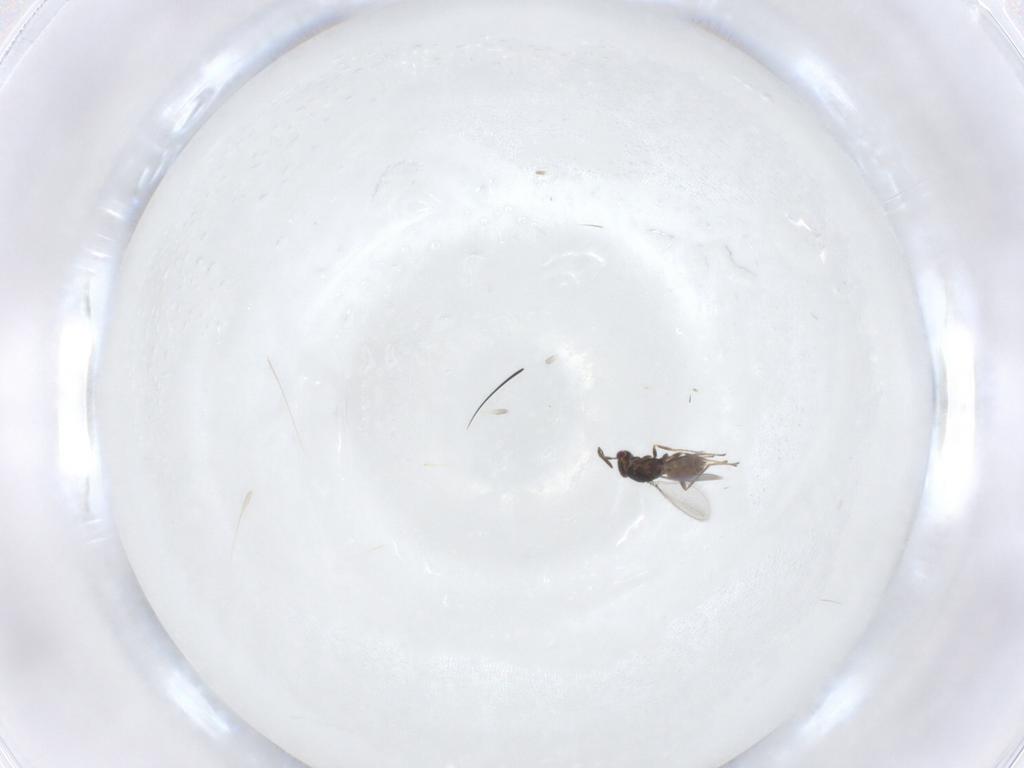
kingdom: Animalia
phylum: Arthropoda
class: Insecta
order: Hymenoptera
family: Mymaridae
